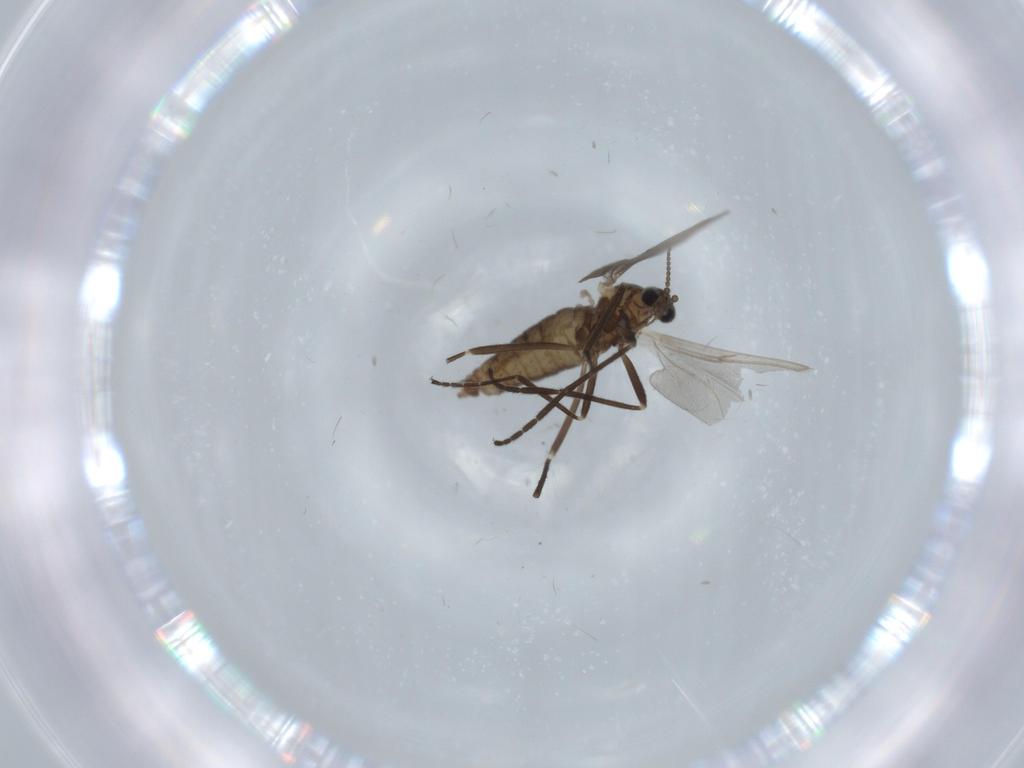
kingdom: Animalia
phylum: Arthropoda
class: Insecta
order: Diptera
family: Cecidomyiidae
